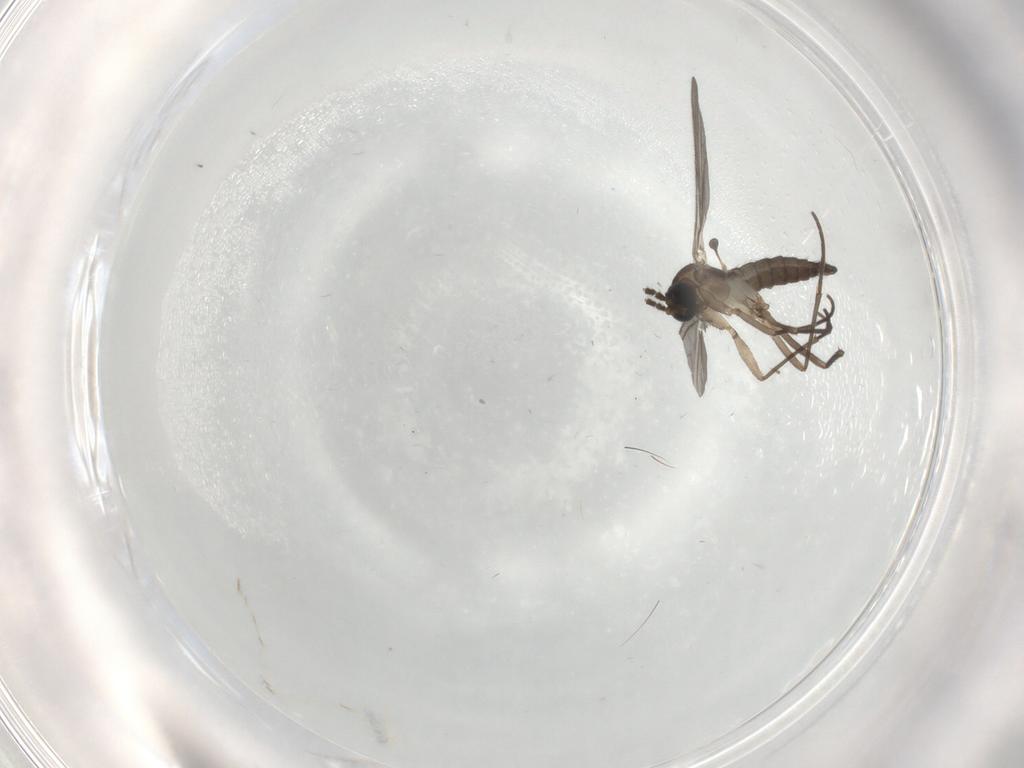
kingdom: Animalia
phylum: Arthropoda
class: Insecta
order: Diptera
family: Sciaridae
